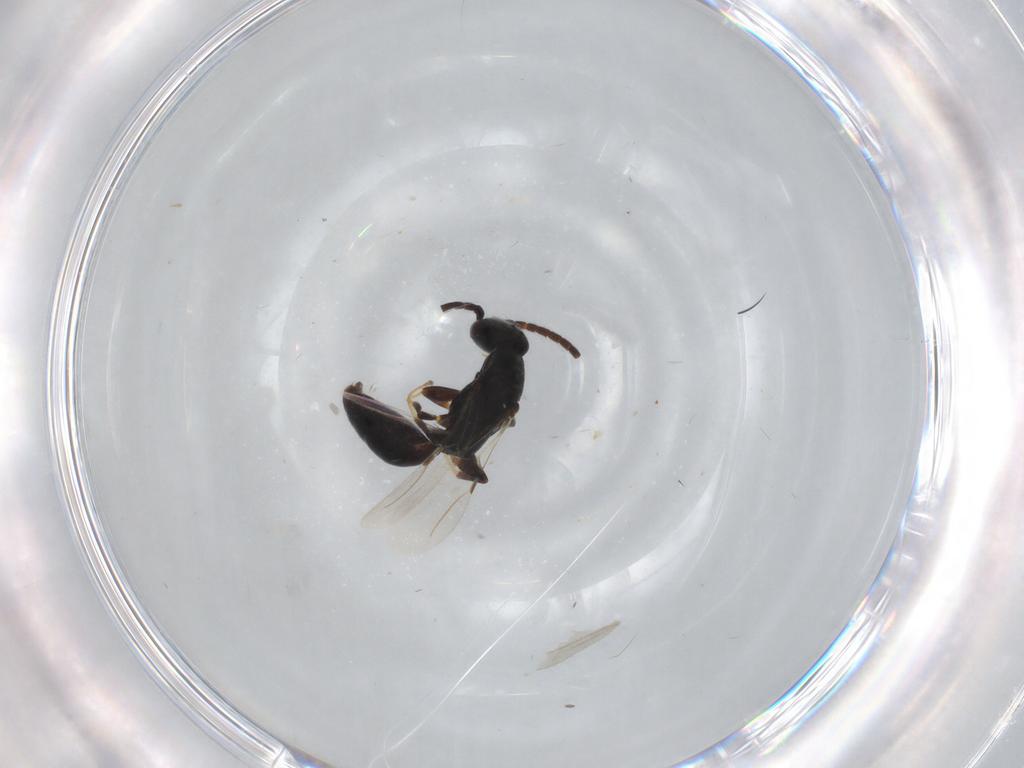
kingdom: Animalia
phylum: Arthropoda
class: Insecta
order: Hymenoptera
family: Bethylidae
